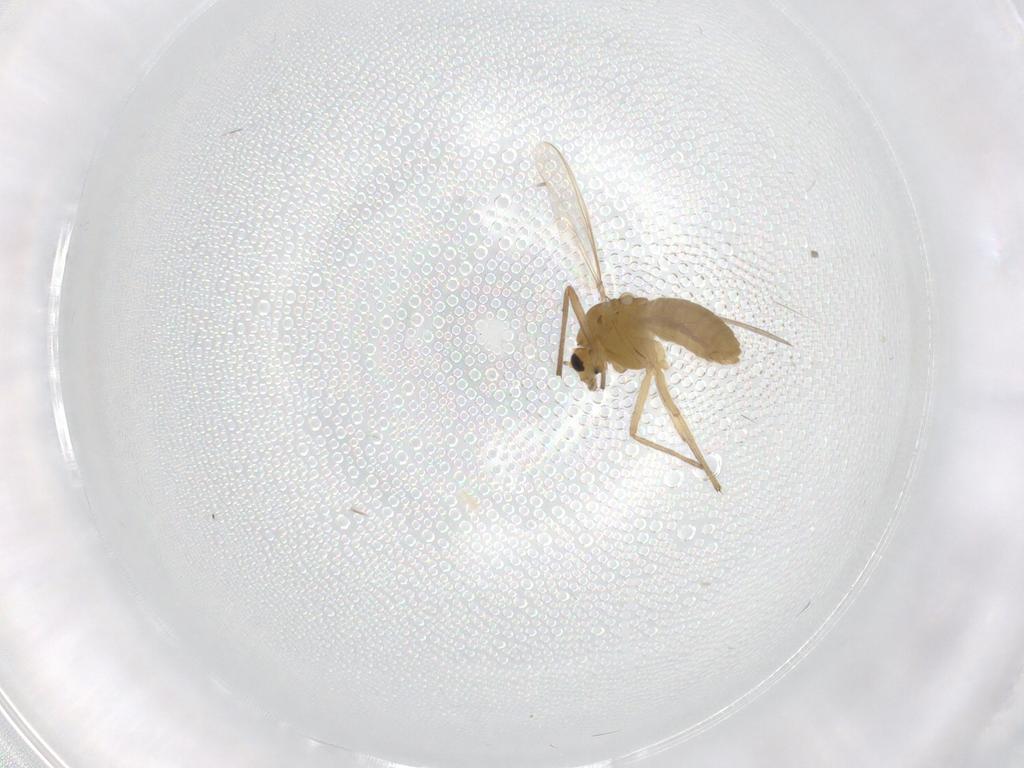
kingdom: Animalia
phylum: Arthropoda
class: Insecta
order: Diptera
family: Chironomidae
